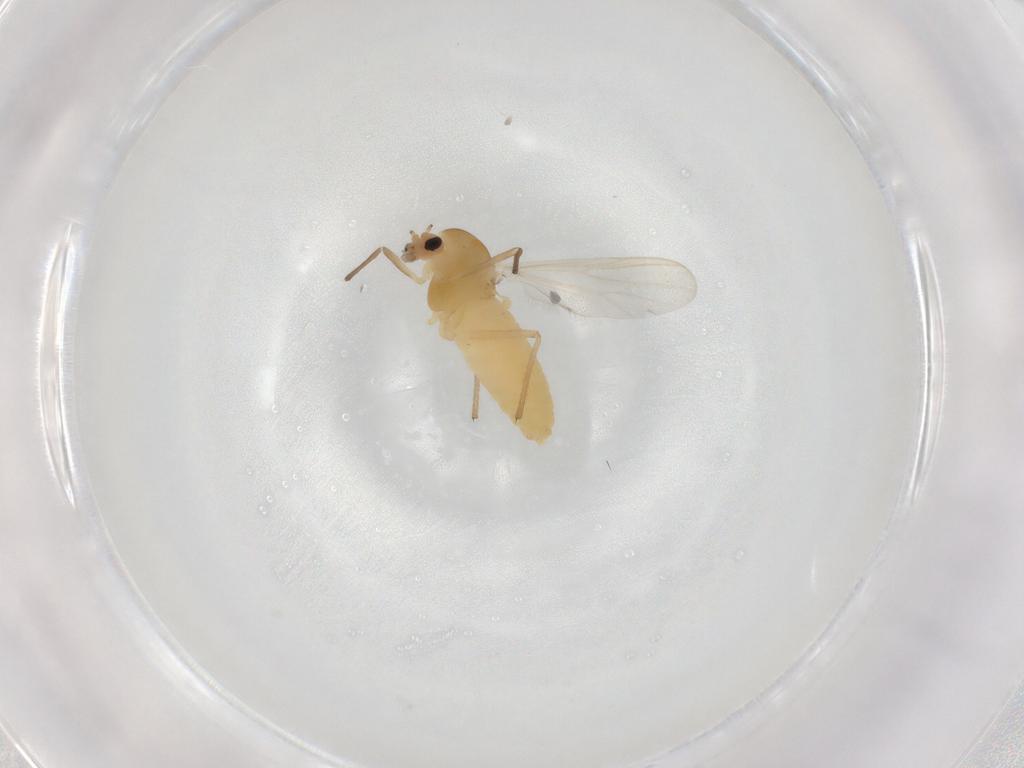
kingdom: Animalia
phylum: Arthropoda
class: Insecta
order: Diptera
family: Chironomidae
